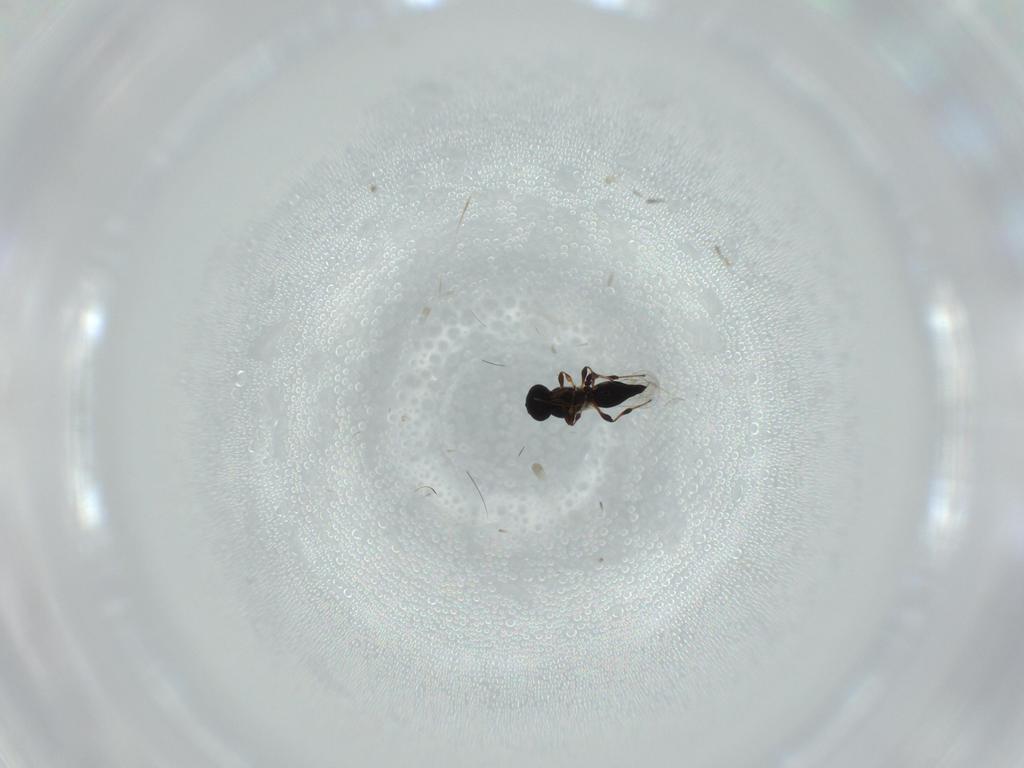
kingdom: Animalia
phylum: Arthropoda
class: Insecta
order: Hymenoptera
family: Platygastridae
